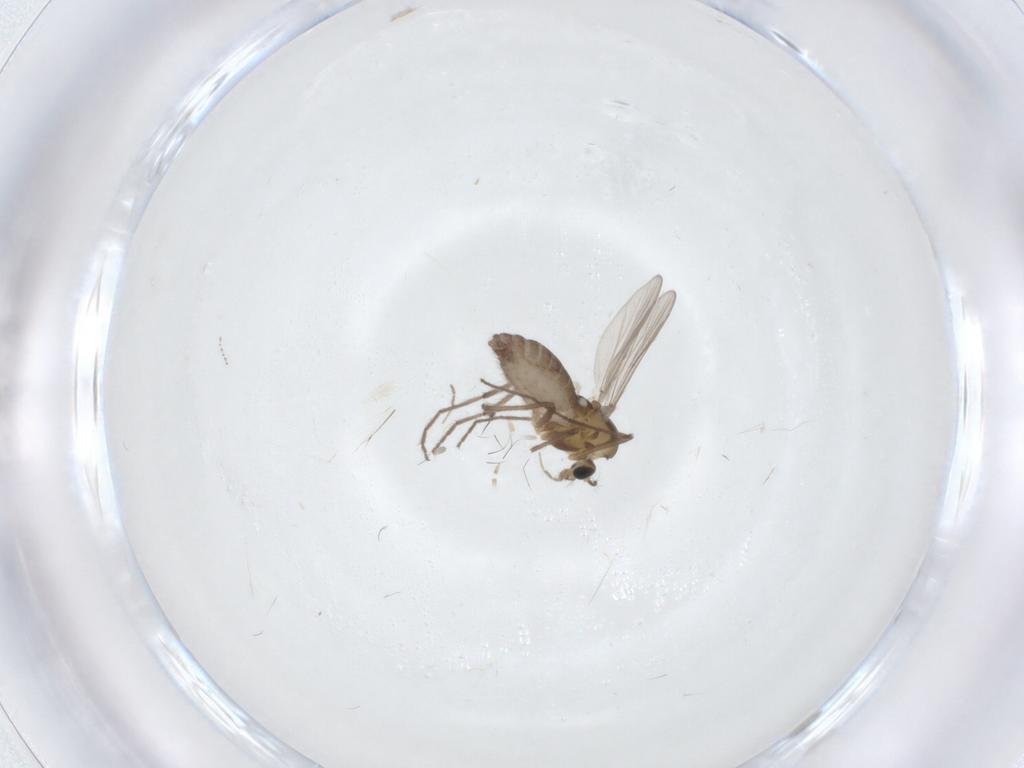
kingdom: Animalia
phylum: Arthropoda
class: Insecta
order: Diptera
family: Chironomidae
